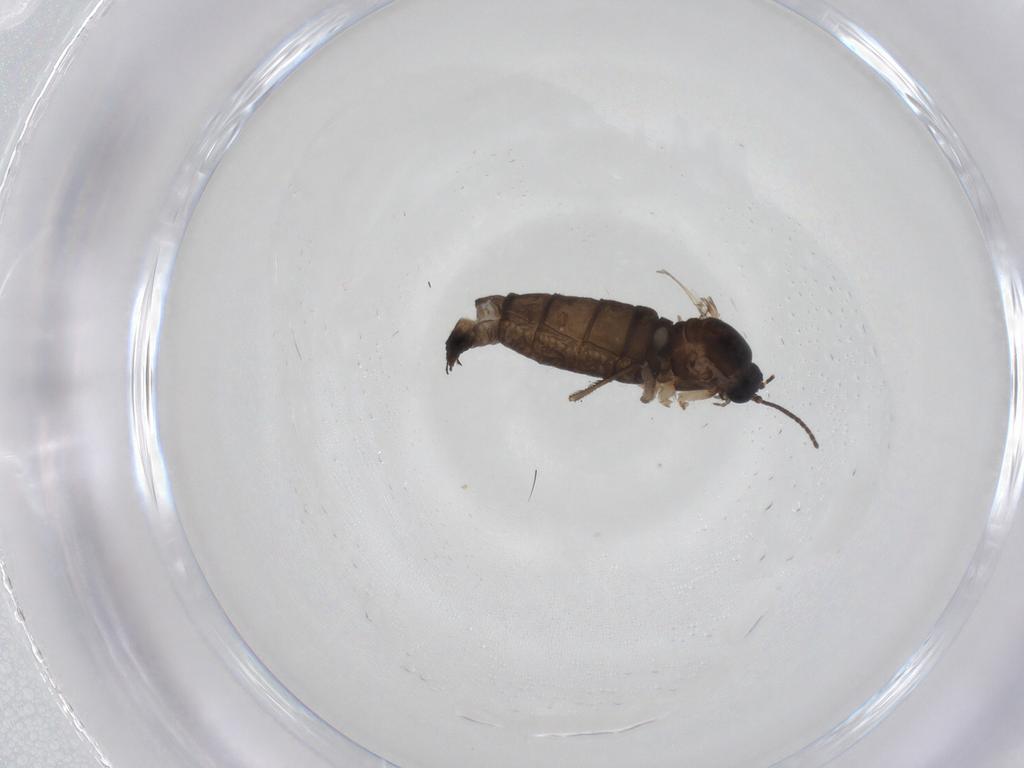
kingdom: Animalia
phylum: Arthropoda
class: Insecta
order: Diptera
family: Sciaridae
